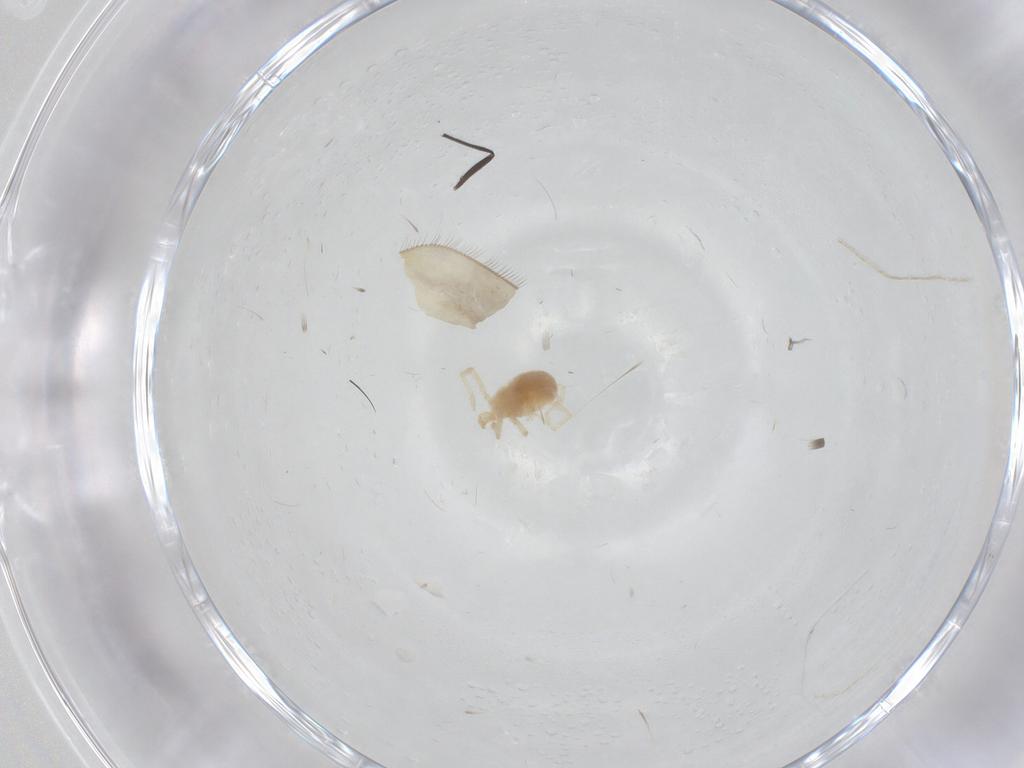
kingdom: Animalia
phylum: Arthropoda
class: Insecta
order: Diptera
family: Chironomidae
